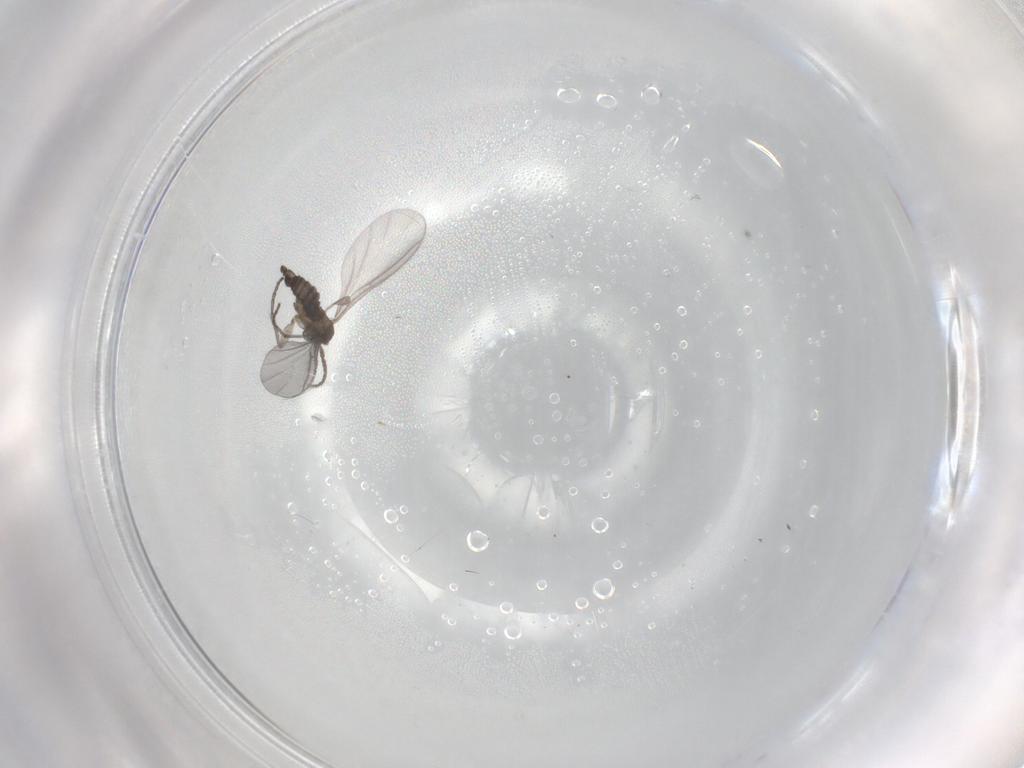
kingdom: Animalia
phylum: Arthropoda
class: Insecta
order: Diptera
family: Sciaridae
